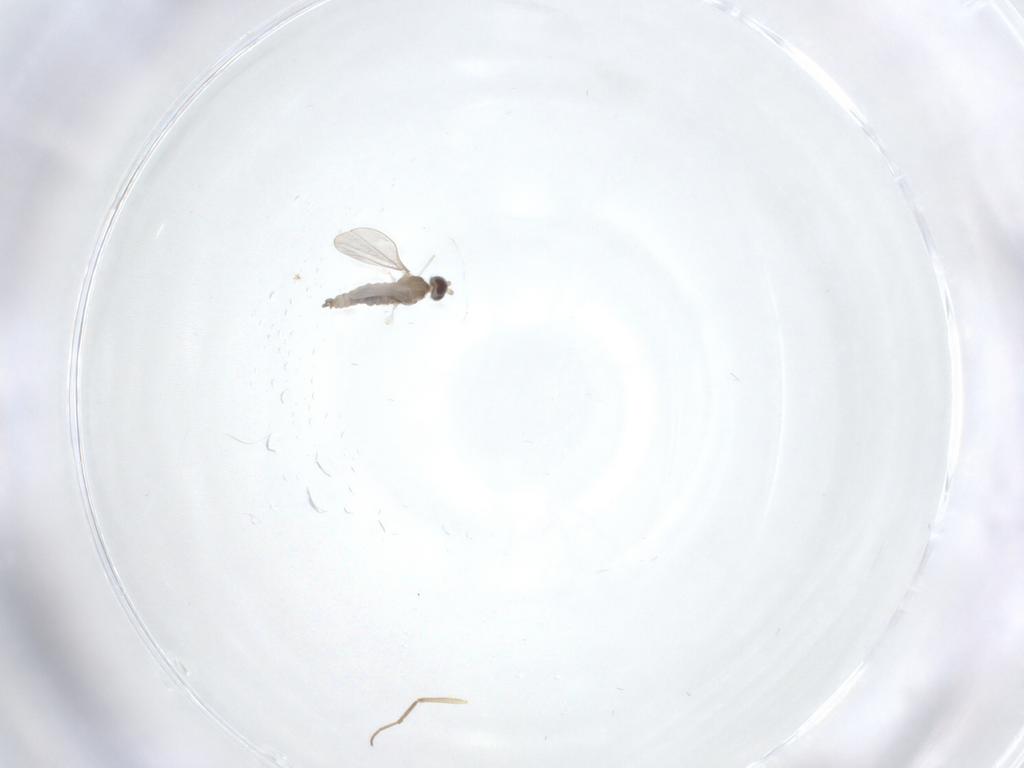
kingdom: Animalia
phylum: Arthropoda
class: Insecta
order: Diptera
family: Cecidomyiidae
